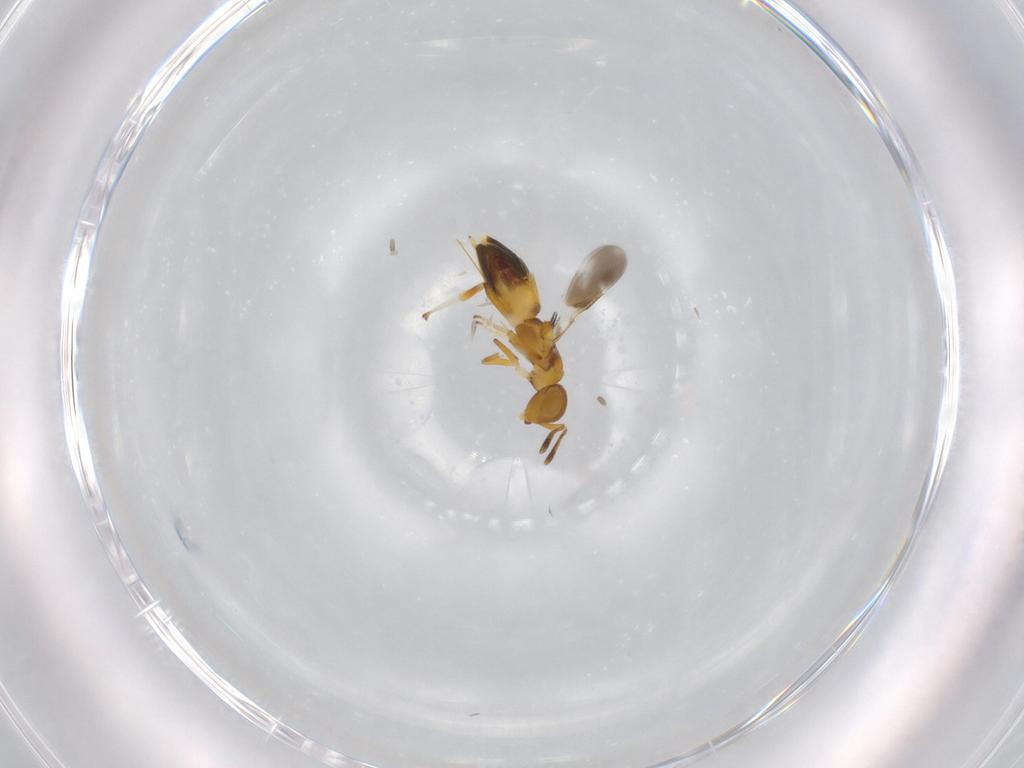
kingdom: Animalia
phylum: Arthropoda
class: Insecta
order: Hymenoptera
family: Encyrtidae
